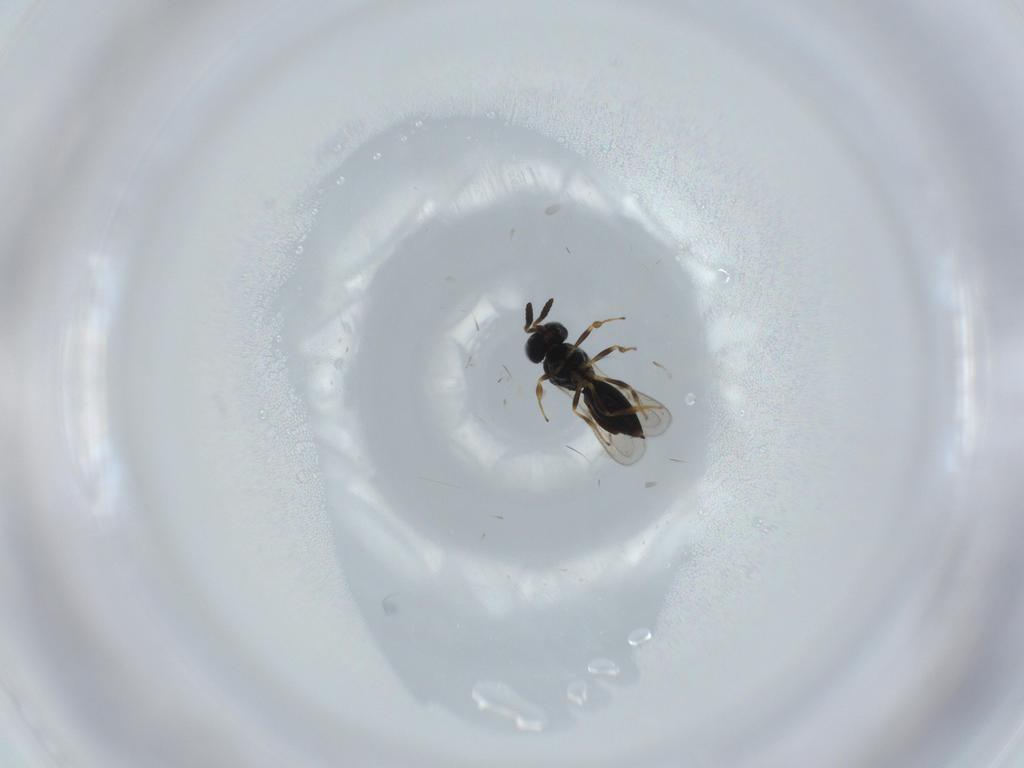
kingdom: Animalia
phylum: Arthropoda
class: Insecta
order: Hymenoptera
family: Scelionidae
